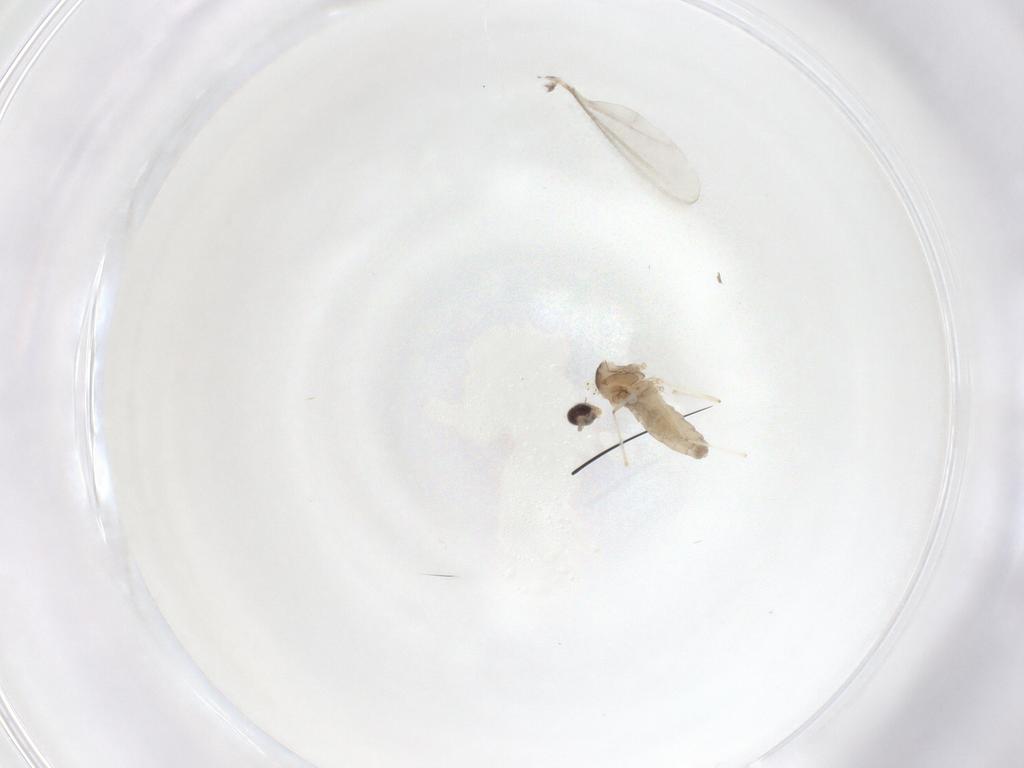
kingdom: Animalia
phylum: Arthropoda
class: Insecta
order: Diptera
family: Cecidomyiidae
